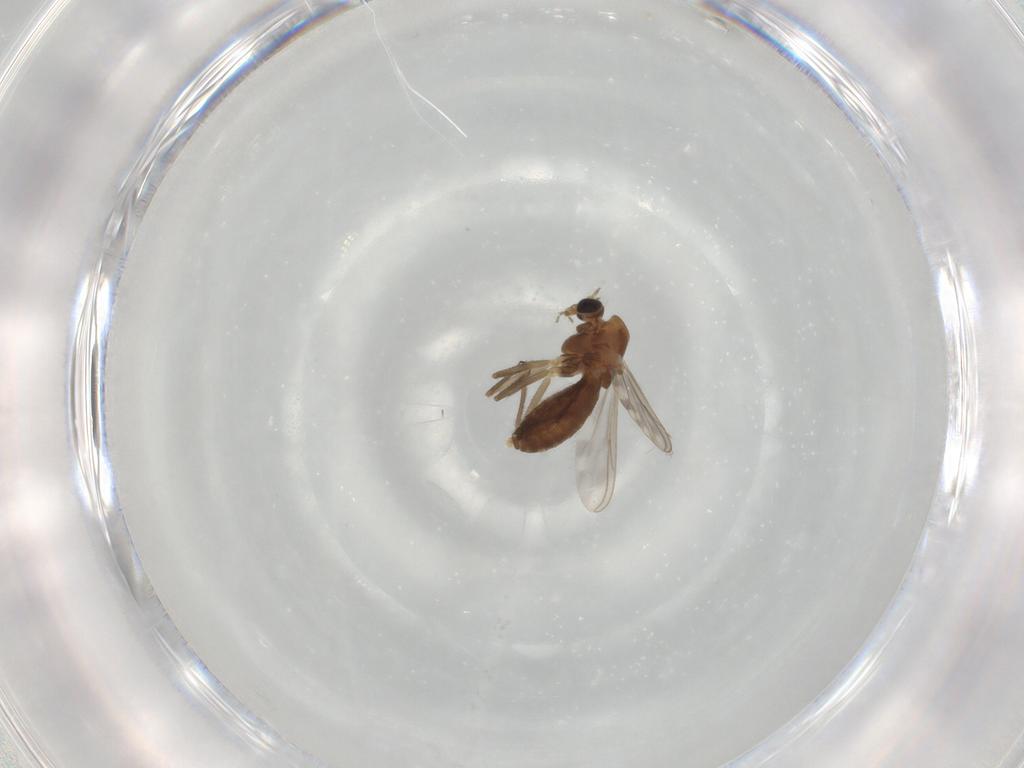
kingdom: Animalia
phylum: Arthropoda
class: Insecta
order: Diptera
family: Chironomidae
